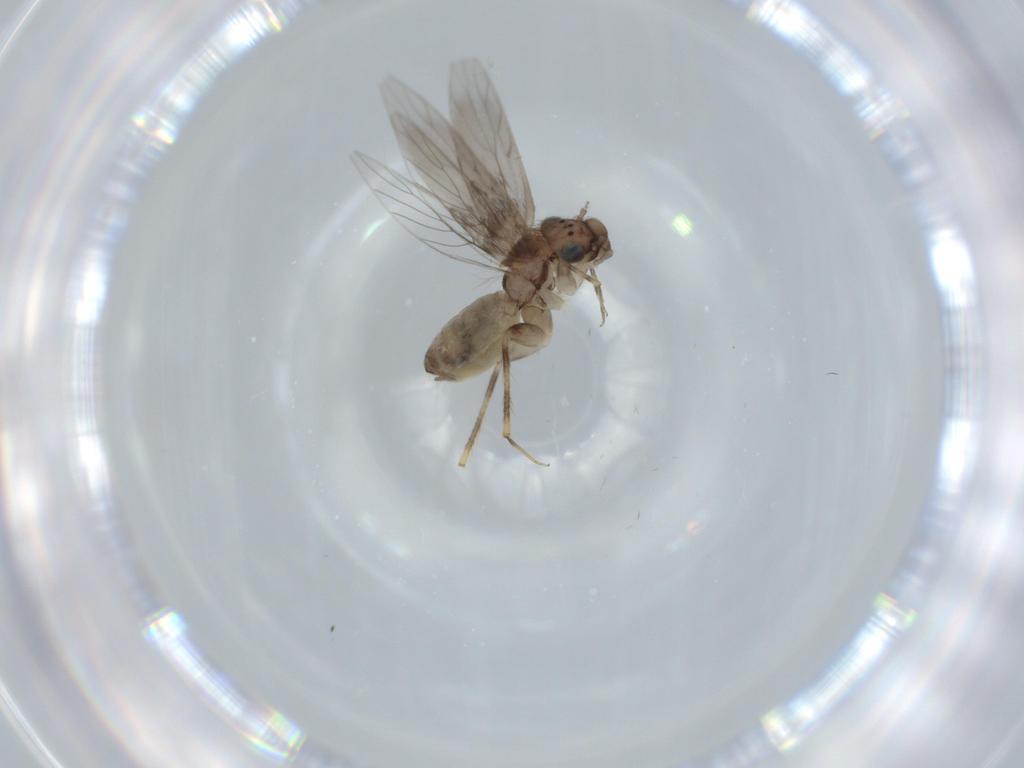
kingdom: Animalia
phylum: Arthropoda
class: Insecta
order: Psocodea
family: Lepidopsocidae
